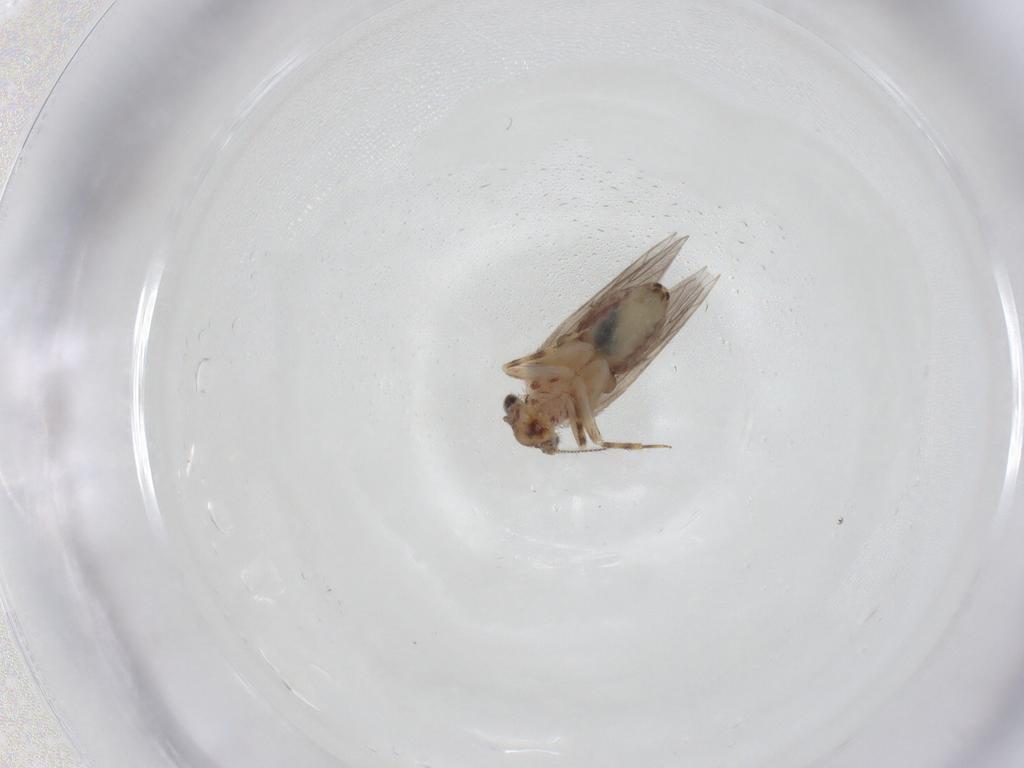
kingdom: Animalia
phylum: Arthropoda
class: Insecta
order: Psocodea
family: Lepidopsocidae
